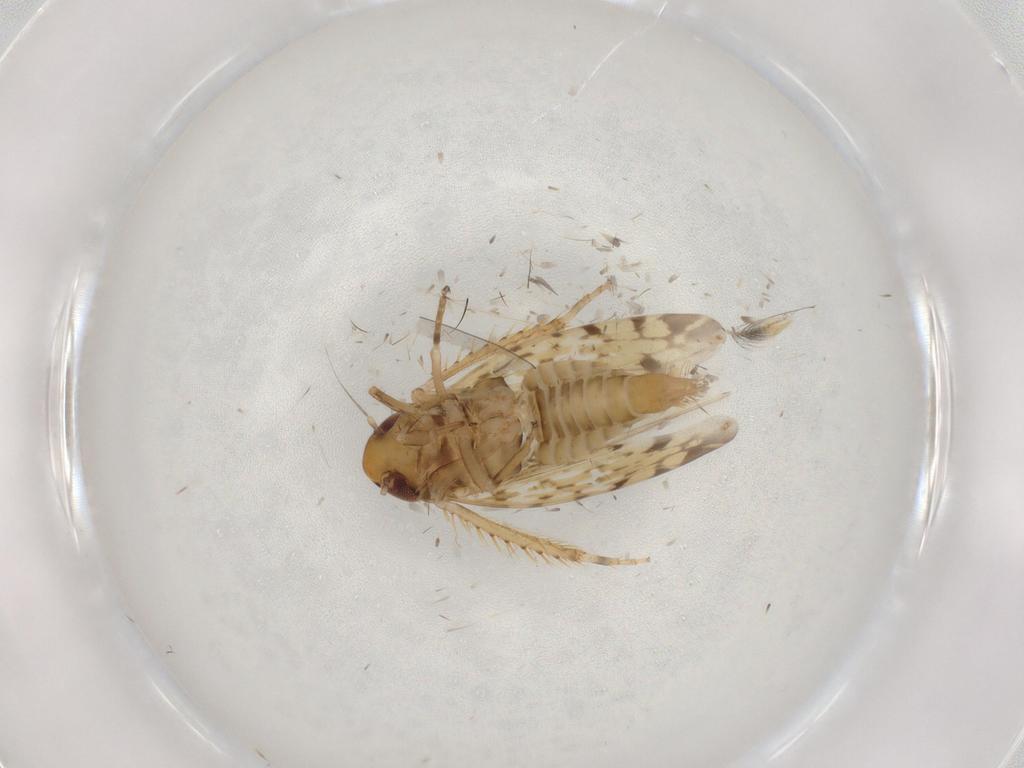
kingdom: Animalia
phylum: Arthropoda
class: Insecta
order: Hemiptera
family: Cicadellidae
